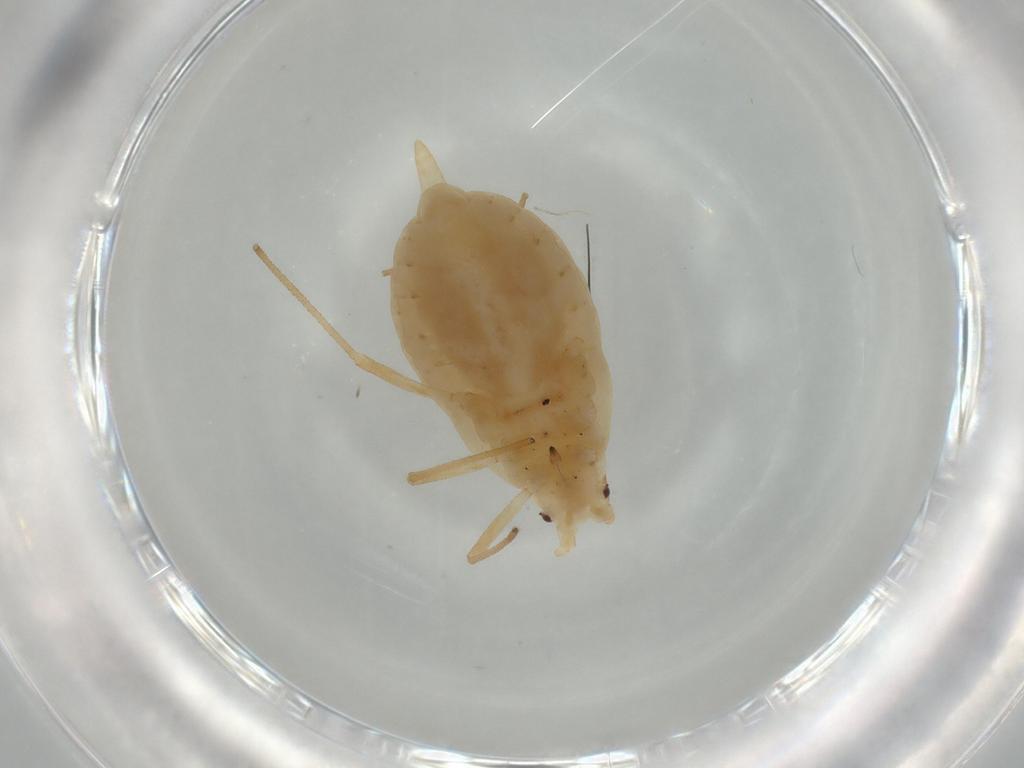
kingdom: Animalia
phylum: Arthropoda
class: Insecta
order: Hemiptera
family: Aphididae
